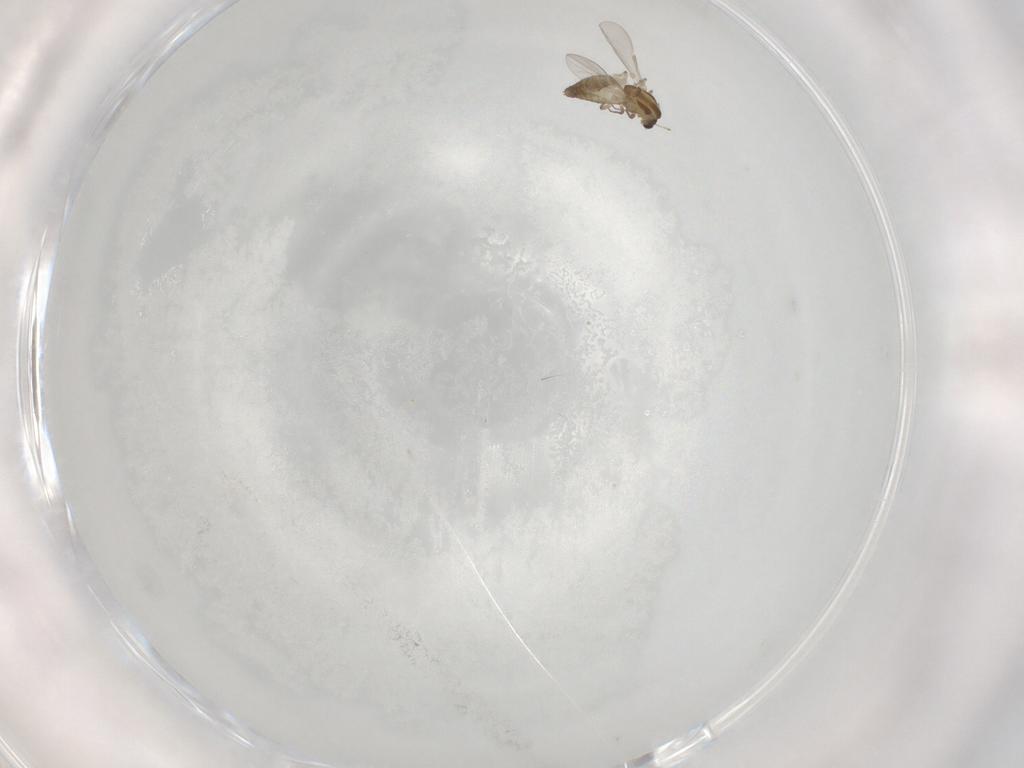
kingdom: Animalia
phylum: Arthropoda
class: Insecta
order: Diptera
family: Chironomidae
